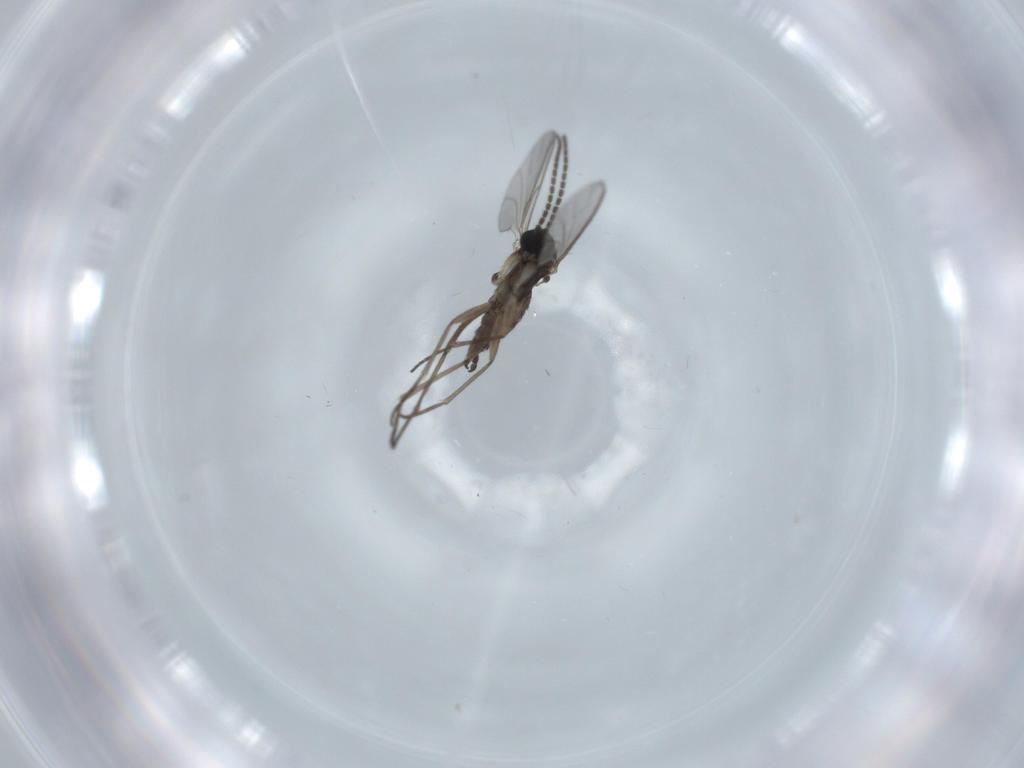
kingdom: Animalia
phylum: Arthropoda
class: Insecta
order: Diptera
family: Sciaridae
